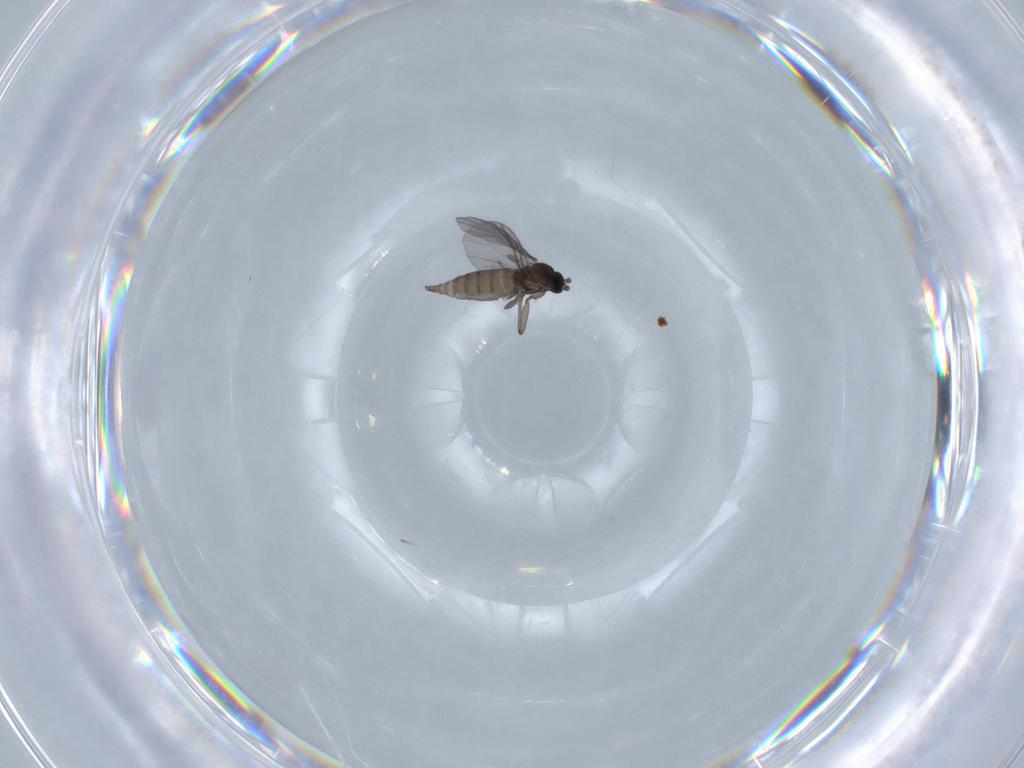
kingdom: Animalia
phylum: Arthropoda
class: Insecta
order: Diptera
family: Sciaridae
